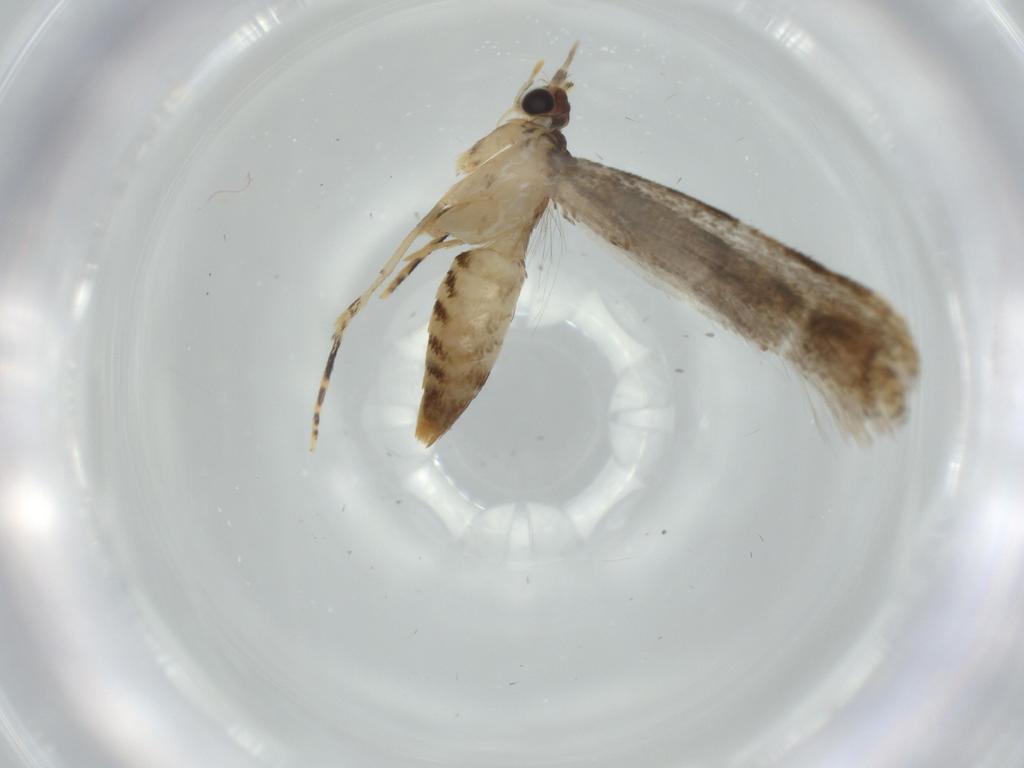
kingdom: Animalia
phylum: Arthropoda
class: Insecta
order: Lepidoptera
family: Tineidae
